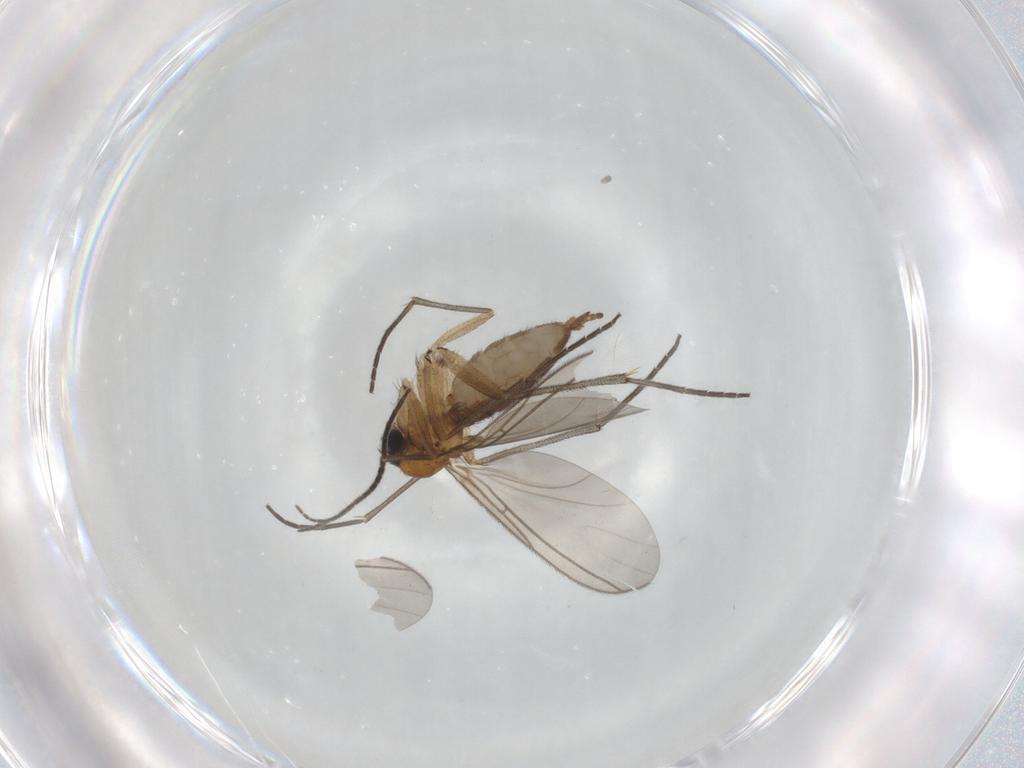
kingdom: Animalia
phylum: Arthropoda
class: Insecta
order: Diptera
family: Sciaridae
